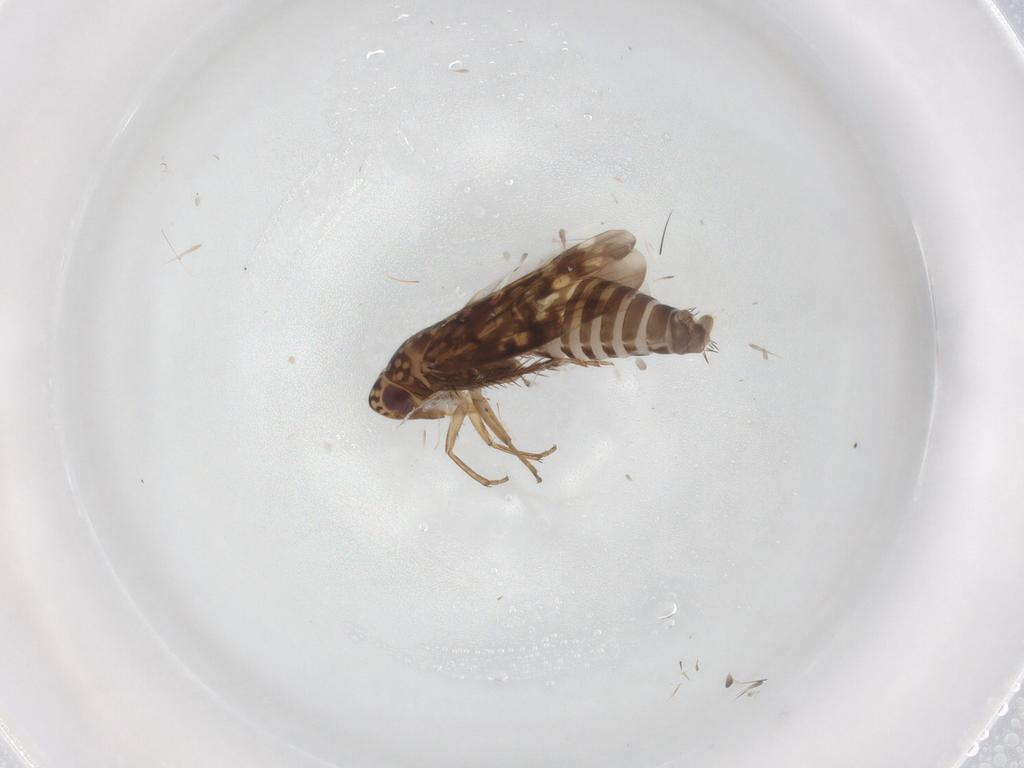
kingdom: Animalia
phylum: Arthropoda
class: Insecta
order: Hemiptera
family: Cicadellidae
